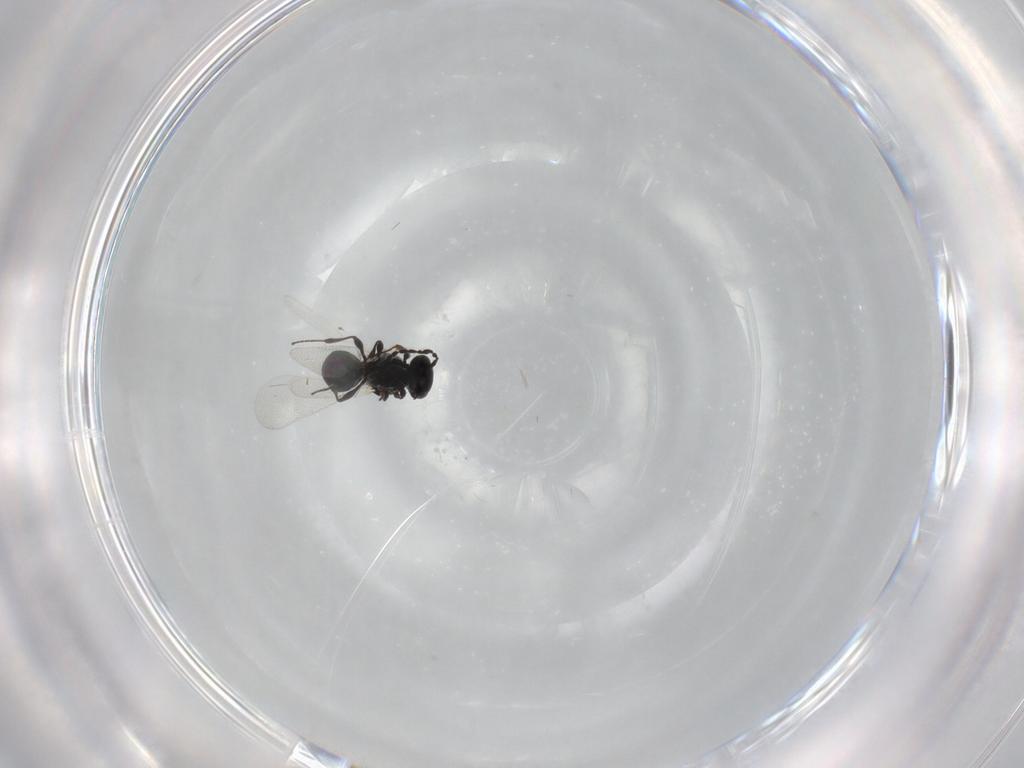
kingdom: Animalia
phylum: Arthropoda
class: Insecta
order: Hymenoptera
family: Platygastridae
